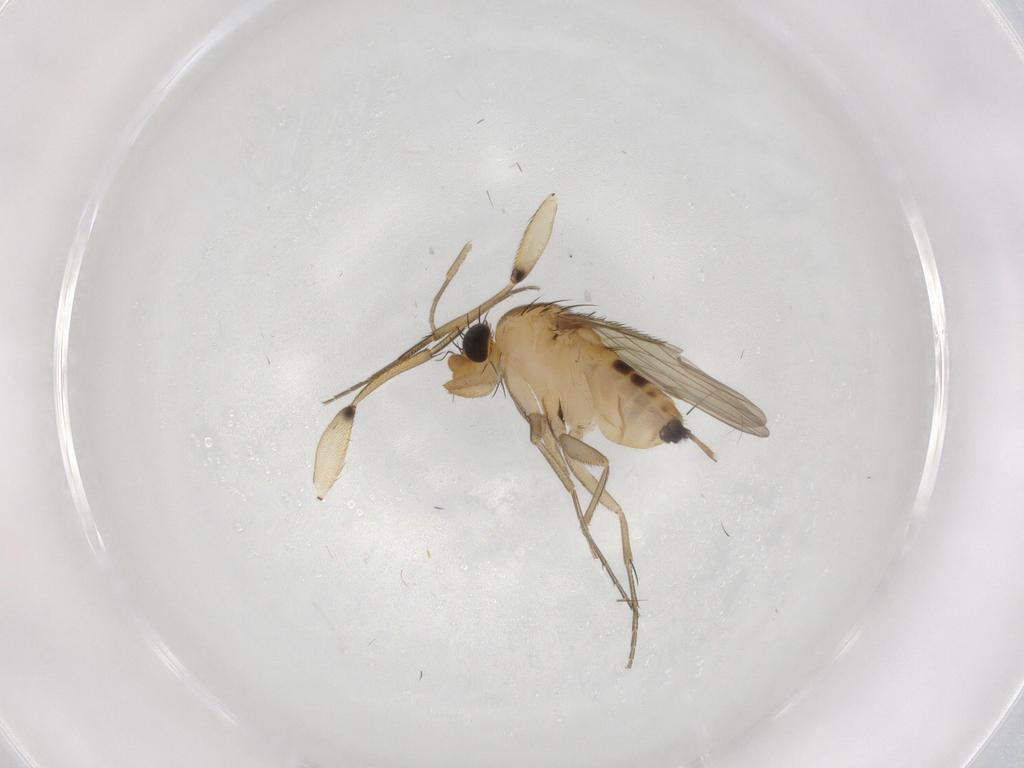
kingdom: Animalia
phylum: Arthropoda
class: Insecta
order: Diptera
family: Phoridae
